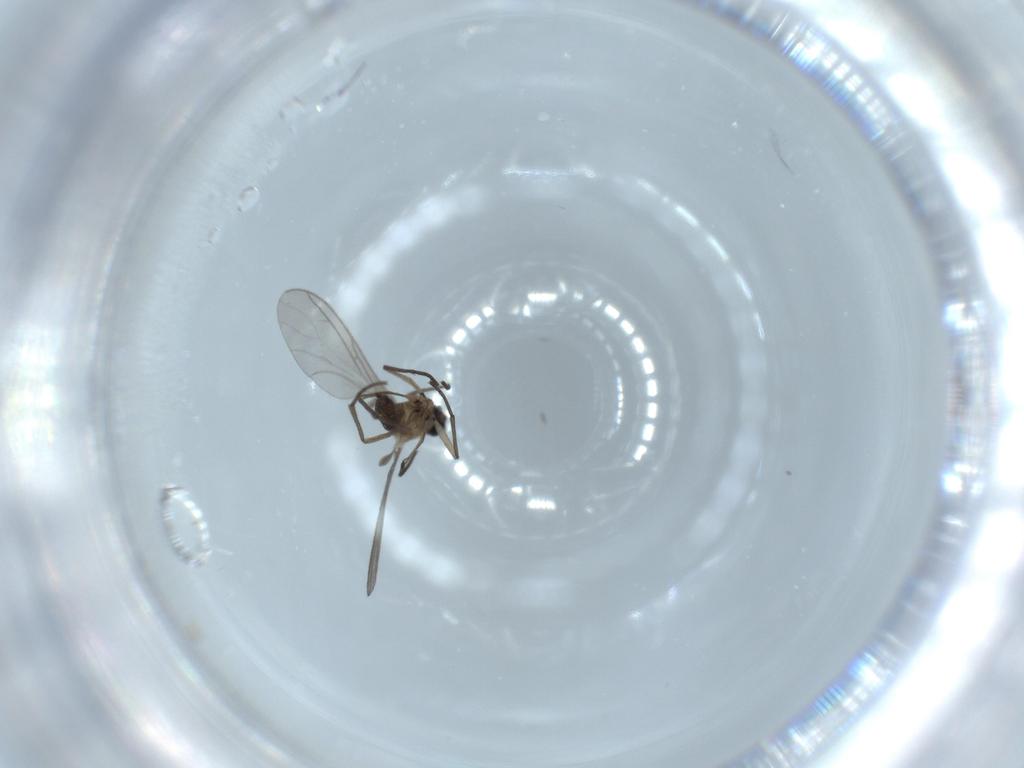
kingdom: Animalia
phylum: Arthropoda
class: Insecta
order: Diptera
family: Sciaridae
